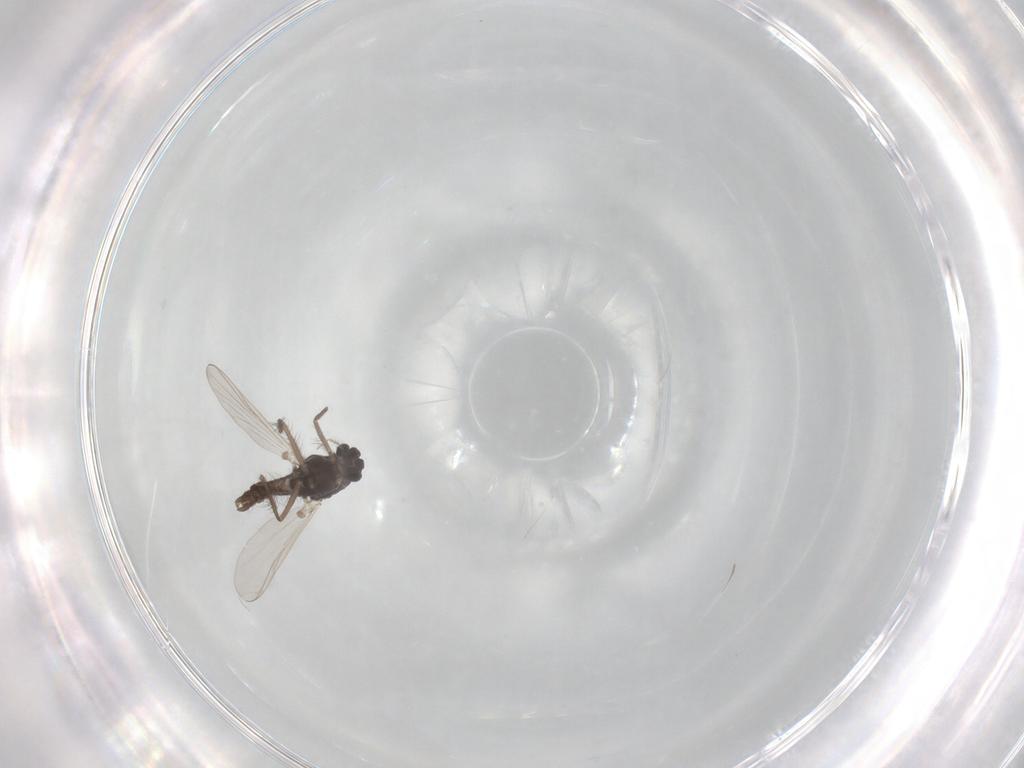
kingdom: Animalia
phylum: Arthropoda
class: Insecta
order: Diptera
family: Chironomidae
